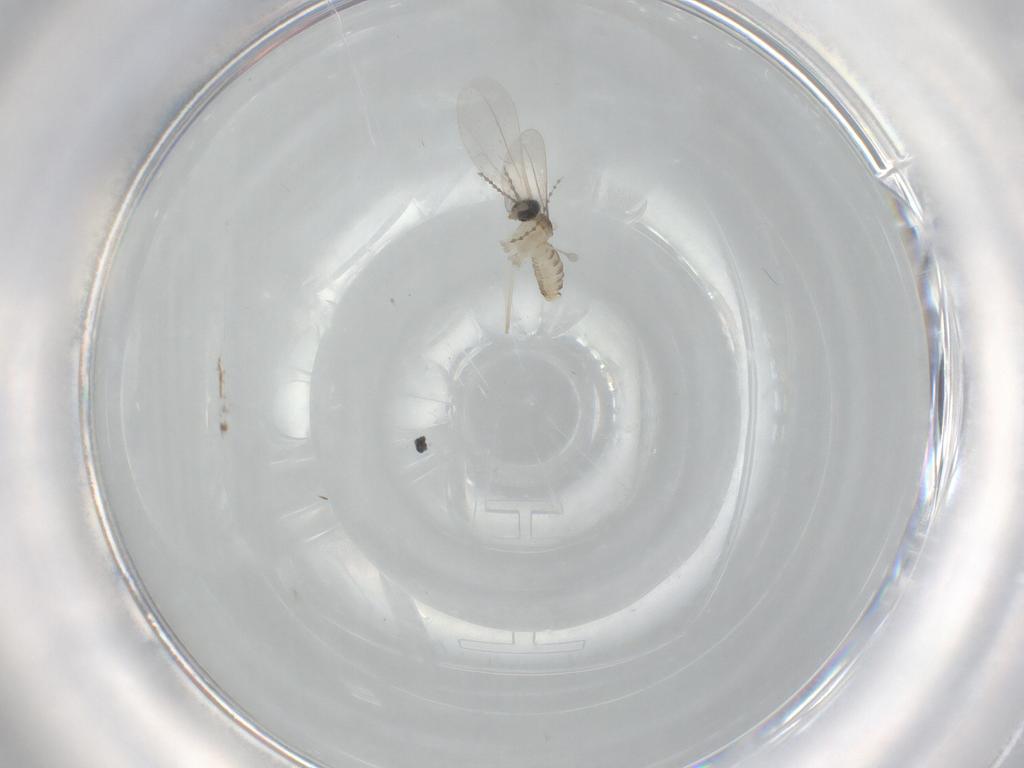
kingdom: Animalia
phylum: Arthropoda
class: Insecta
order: Diptera
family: Cecidomyiidae
